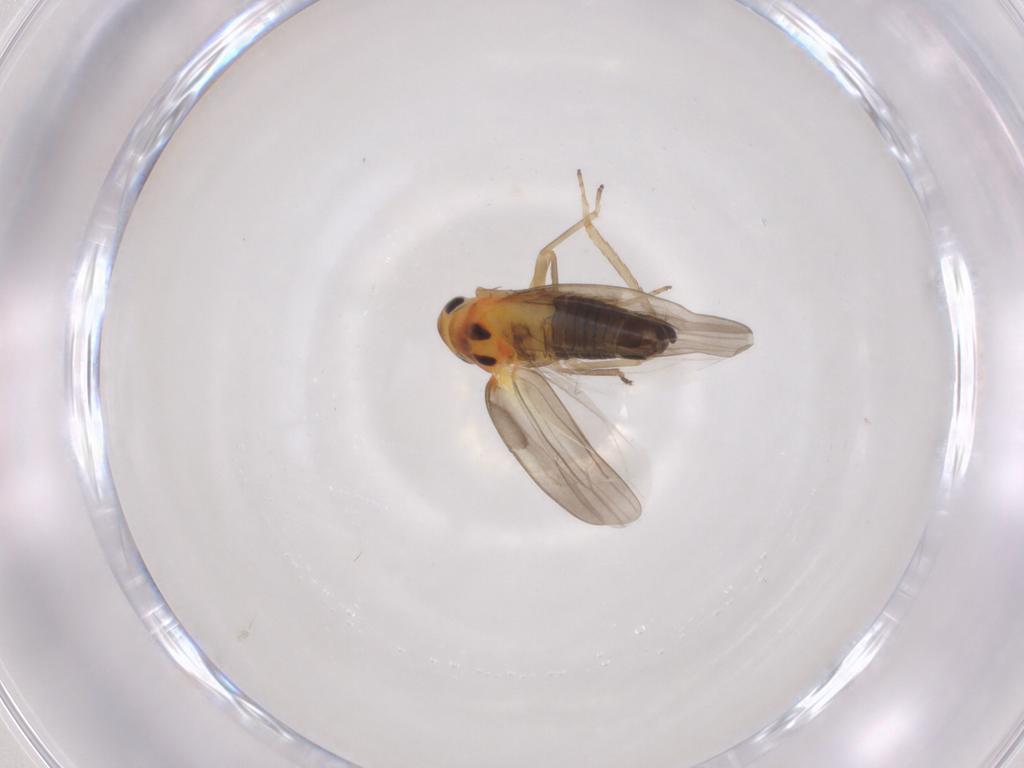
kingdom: Animalia
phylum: Arthropoda
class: Insecta
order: Hemiptera
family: Cicadellidae
